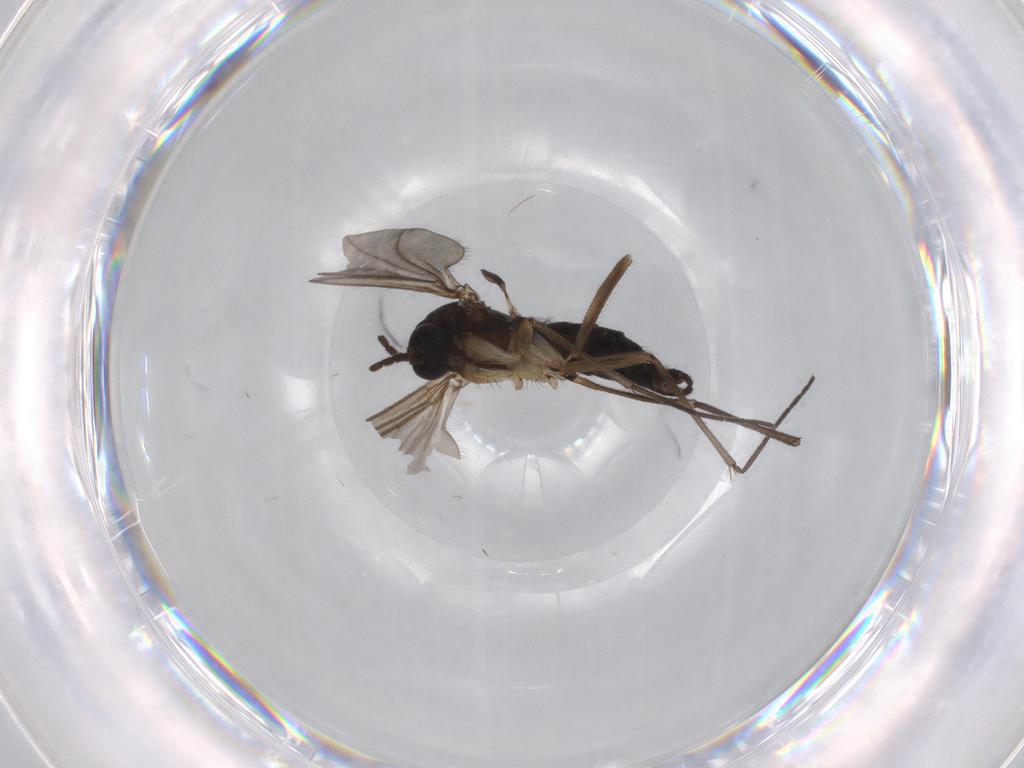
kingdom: Animalia
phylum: Arthropoda
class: Insecta
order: Diptera
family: Sciaridae
